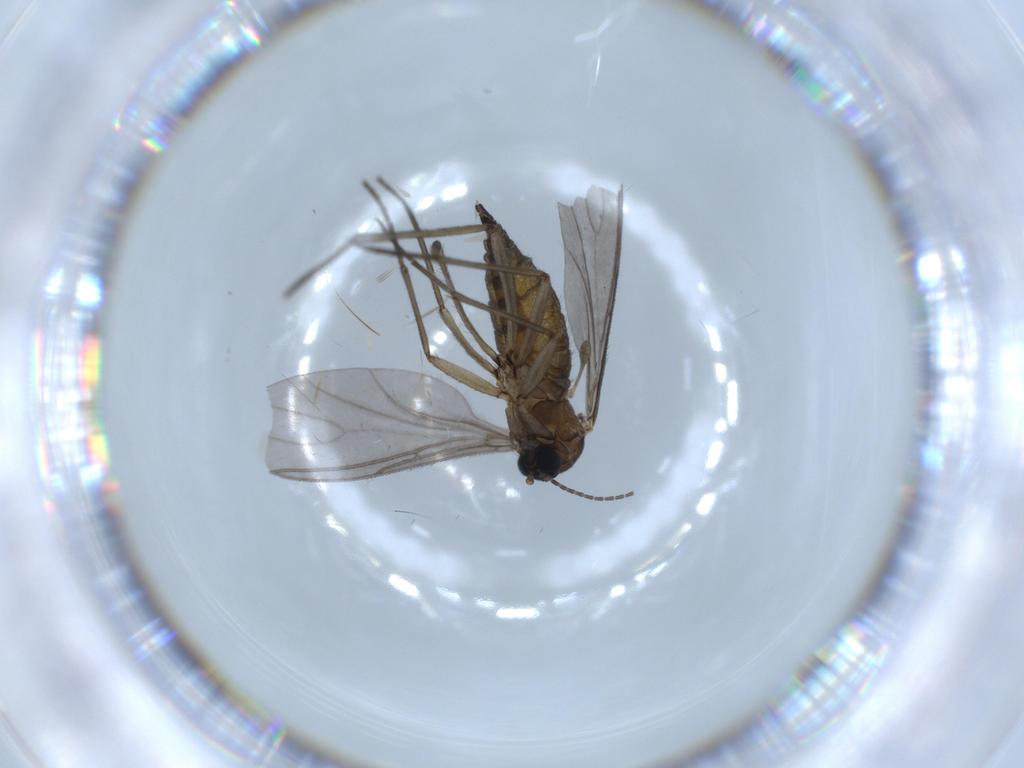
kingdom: Animalia
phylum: Arthropoda
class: Insecta
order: Diptera
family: Sciaridae
